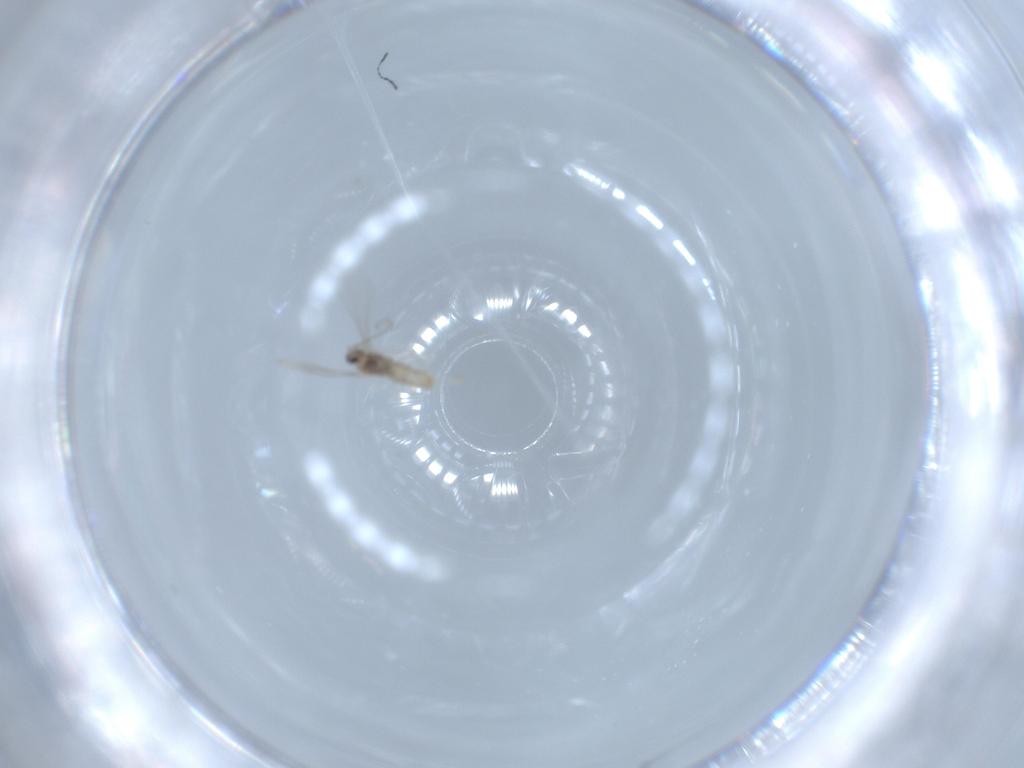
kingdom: Animalia
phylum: Arthropoda
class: Insecta
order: Diptera
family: Cecidomyiidae
